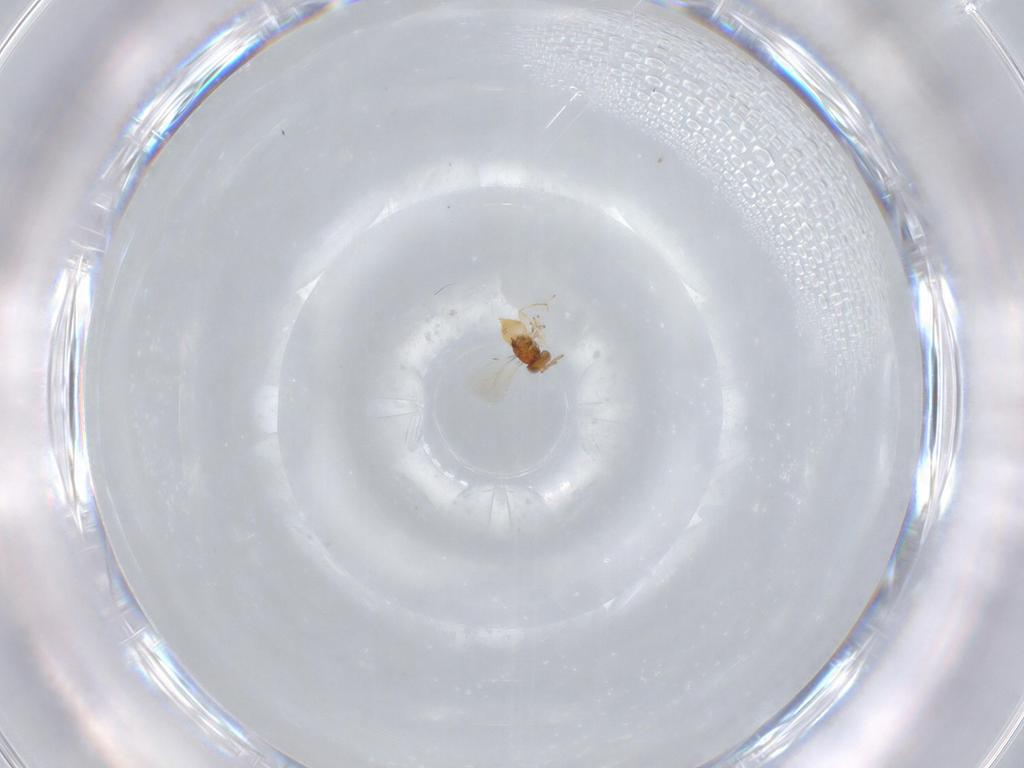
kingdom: Animalia
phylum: Arthropoda
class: Insecta
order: Hymenoptera
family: Aphelinidae
